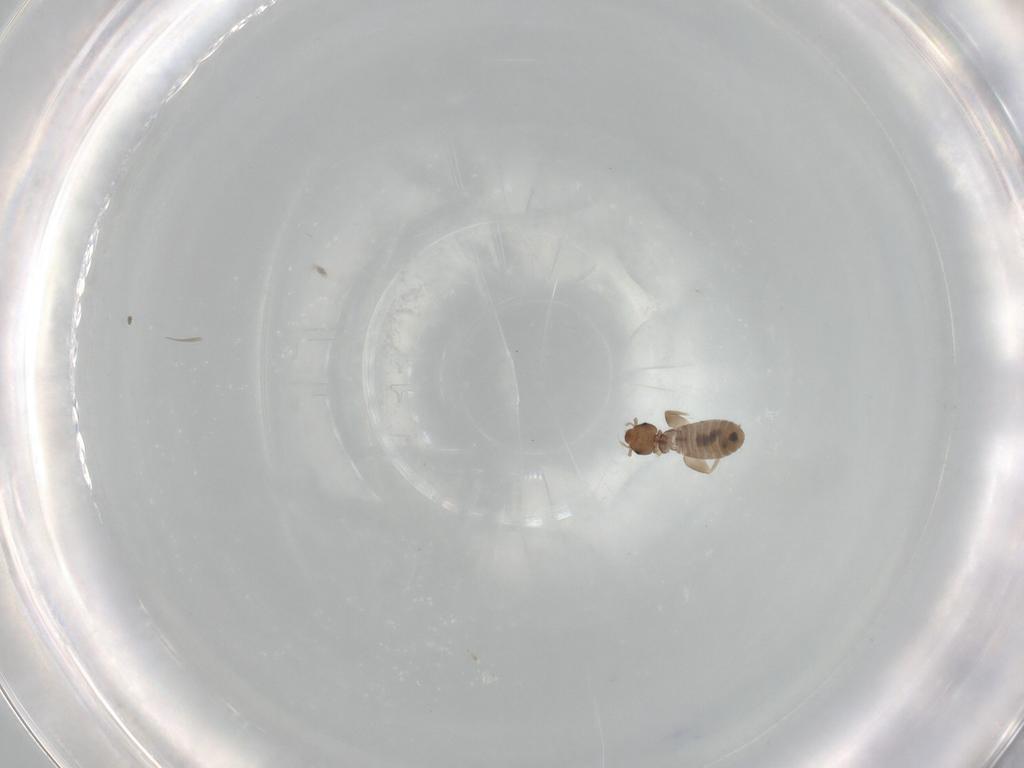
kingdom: Animalia
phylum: Arthropoda
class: Insecta
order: Psocodea
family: Liposcelididae
